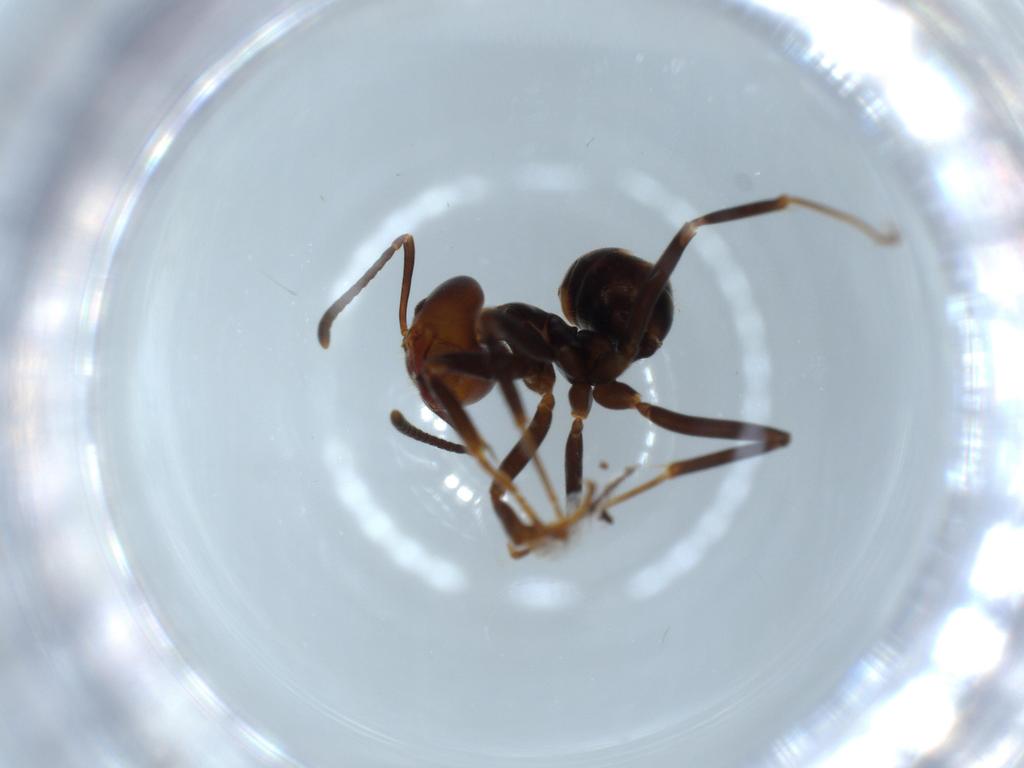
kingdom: Animalia
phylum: Arthropoda
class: Insecta
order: Hymenoptera
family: Formicidae
